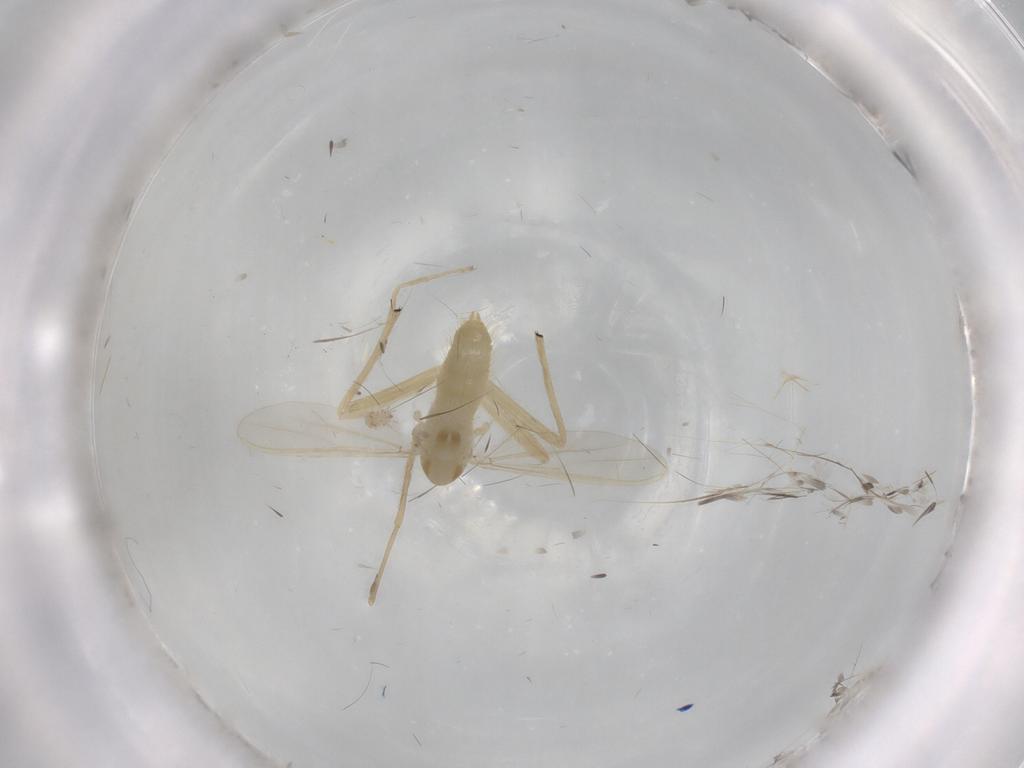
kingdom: Animalia
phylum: Arthropoda
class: Insecta
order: Diptera
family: Chironomidae
